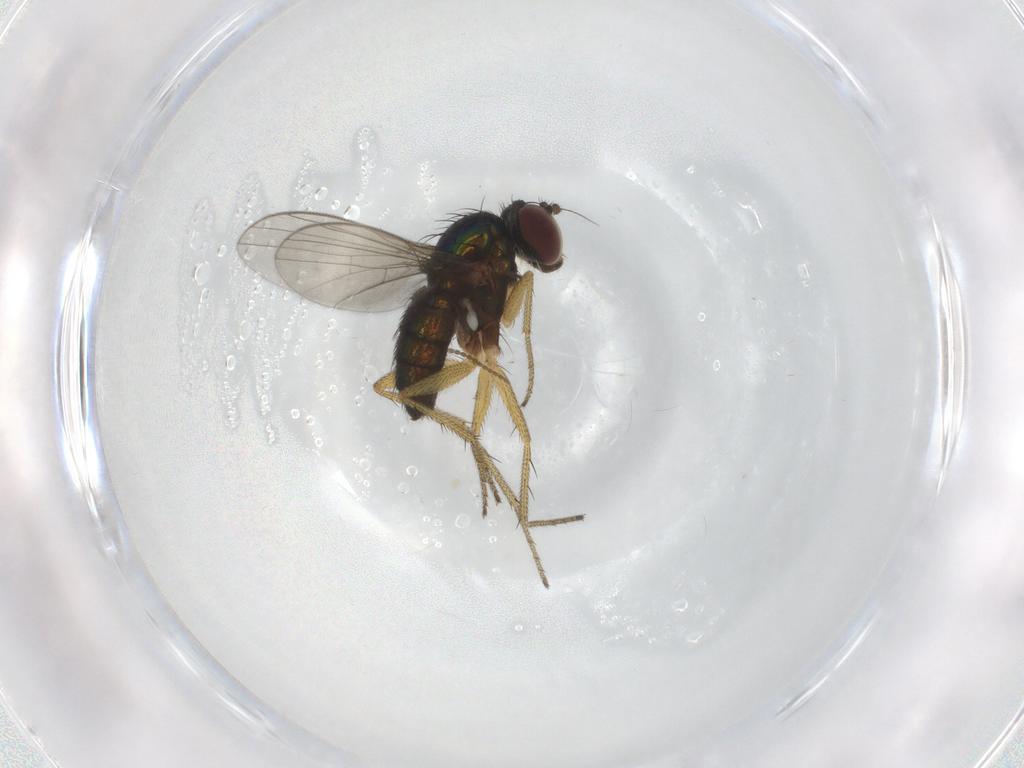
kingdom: Animalia
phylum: Arthropoda
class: Insecta
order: Diptera
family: Limoniidae
